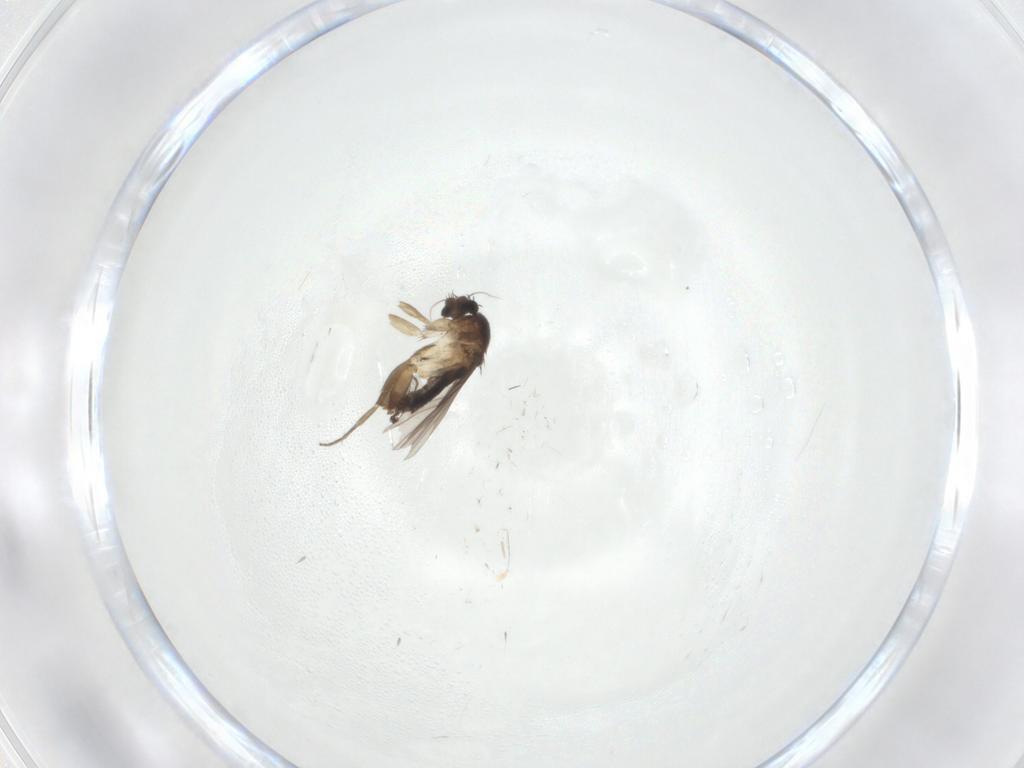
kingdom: Animalia
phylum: Arthropoda
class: Insecta
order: Diptera
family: Phoridae
